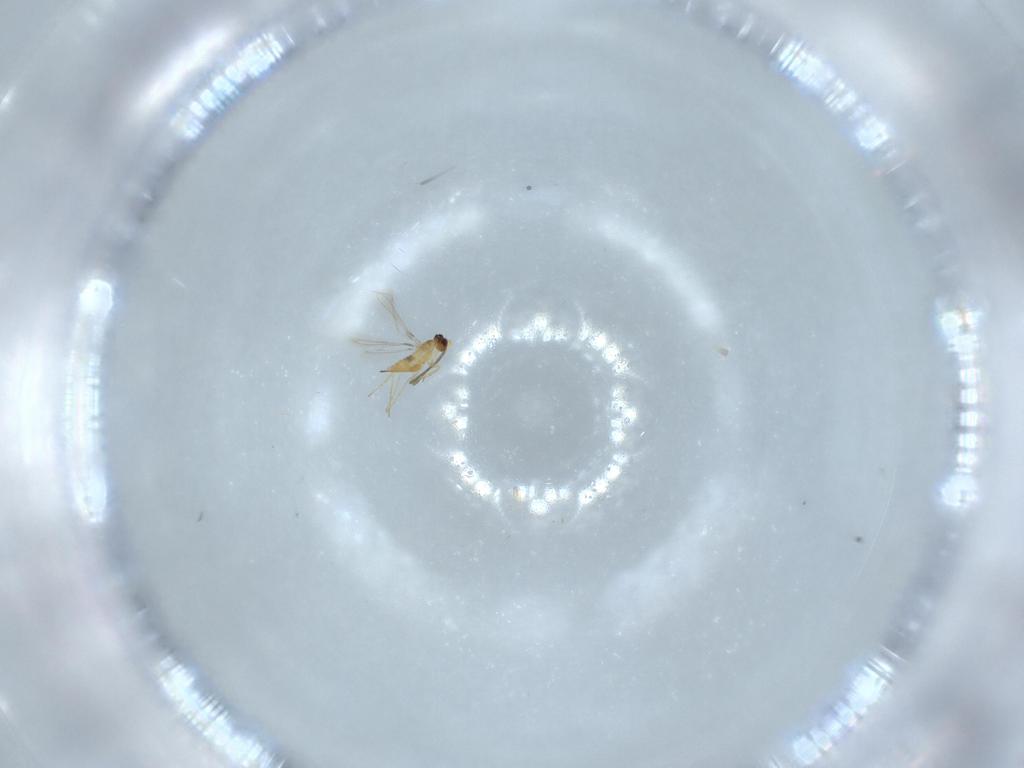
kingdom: Animalia
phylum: Arthropoda
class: Insecta
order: Hymenoptera
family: Mymaridae
